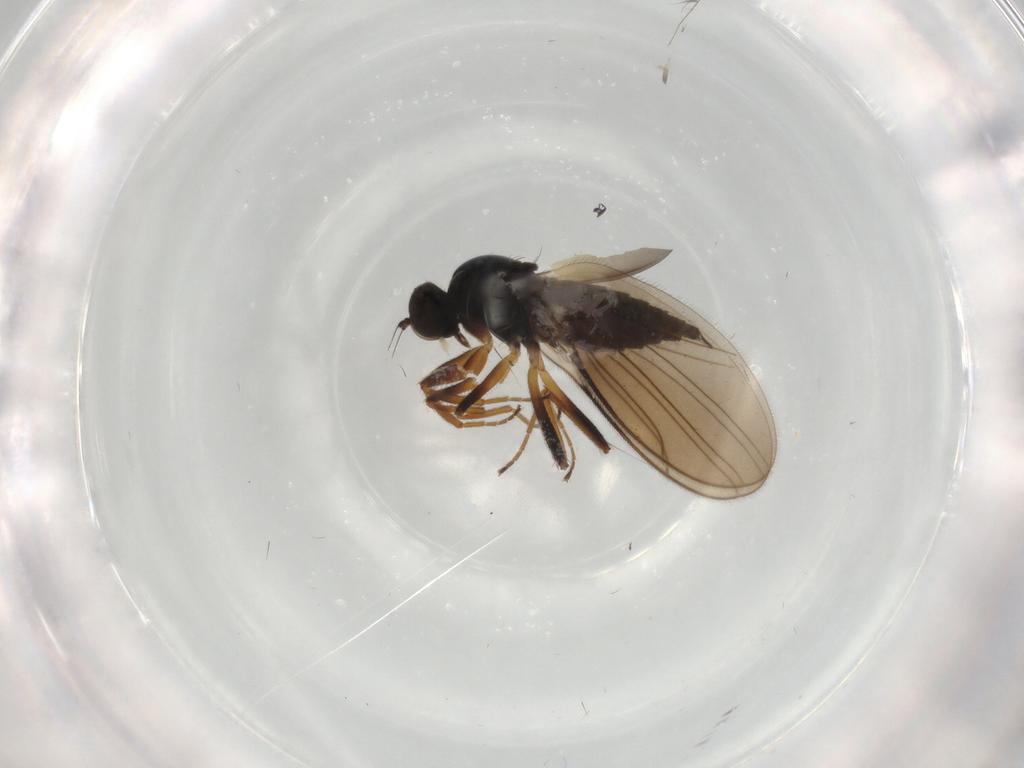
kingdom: Animalia
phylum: Arthropoda
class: Insecta
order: Diptera
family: Hybotidae
